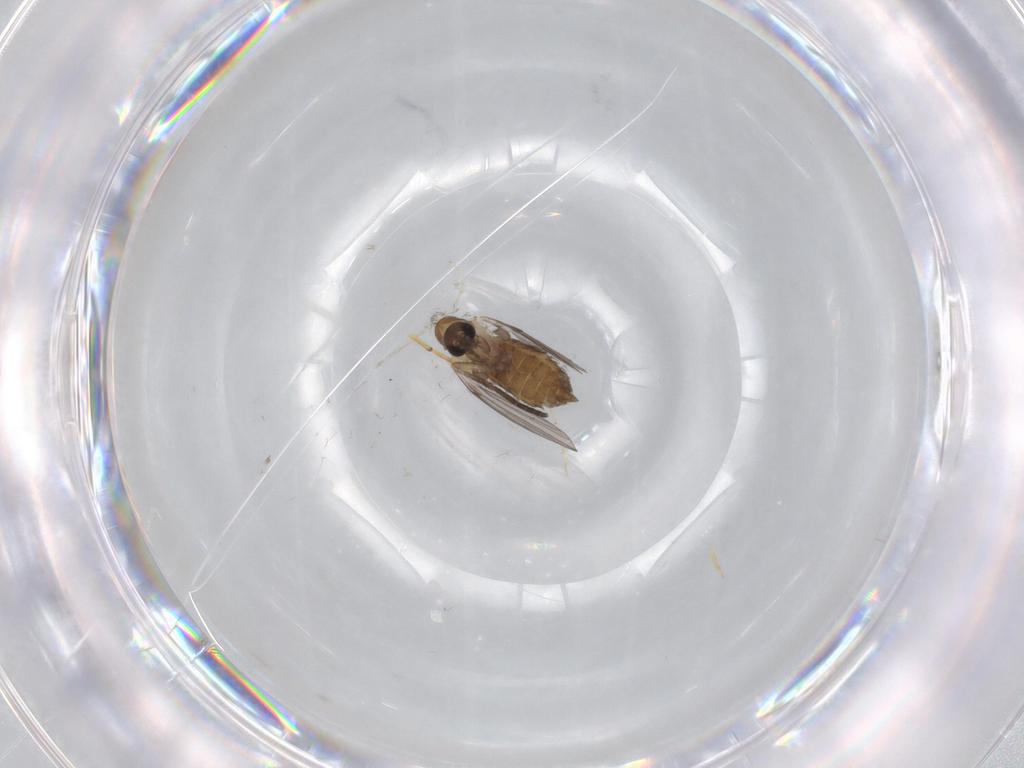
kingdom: Animalia
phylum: Arthropoda
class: Insecta
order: Diptera
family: Cecidomyiidae
